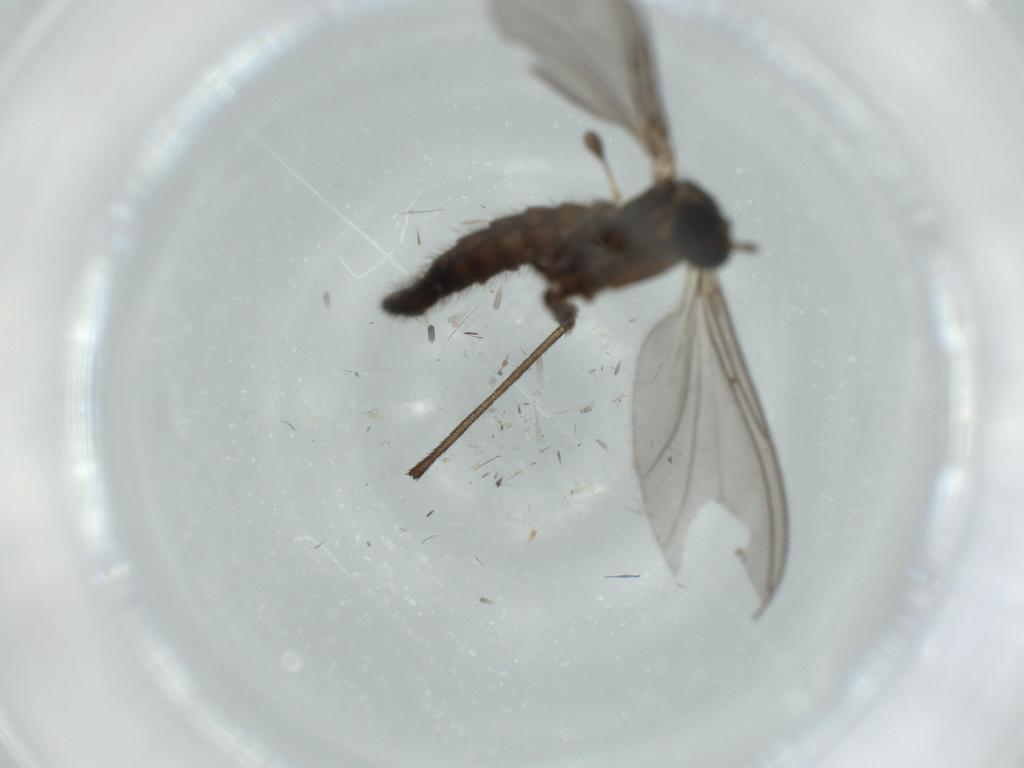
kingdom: Animalia
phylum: Arthropoda
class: Insecta
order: Diptera
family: Sciaridae
